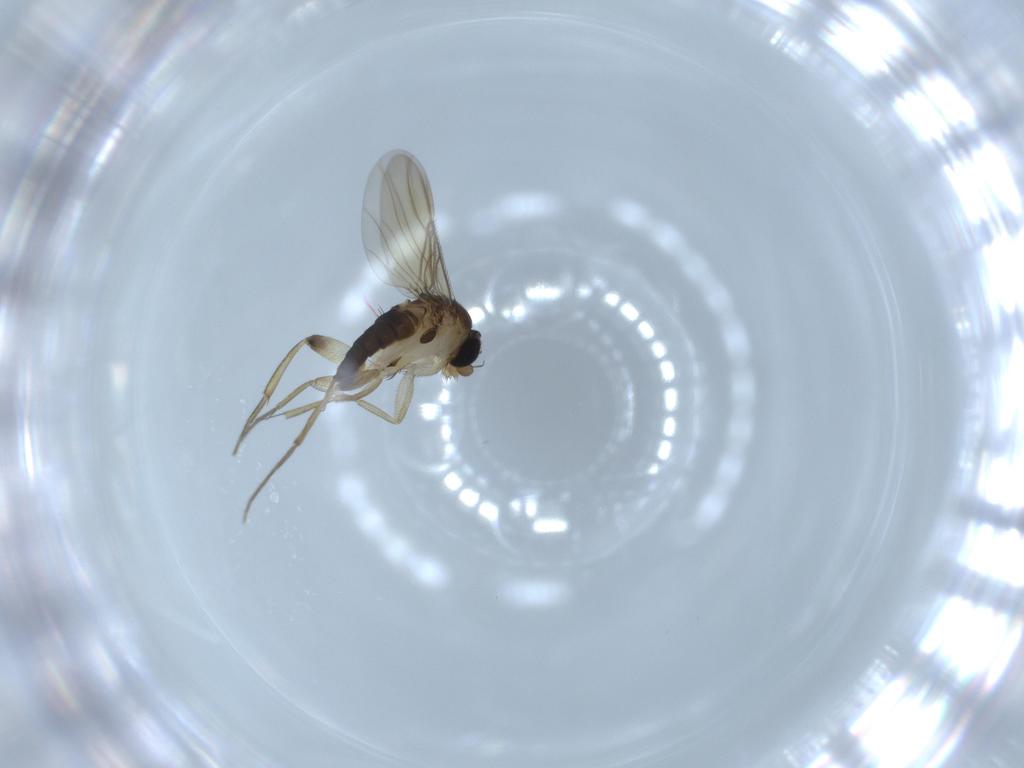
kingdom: Animalia
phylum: Arthropoda
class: Insecta
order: Diptera
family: Phoridae
